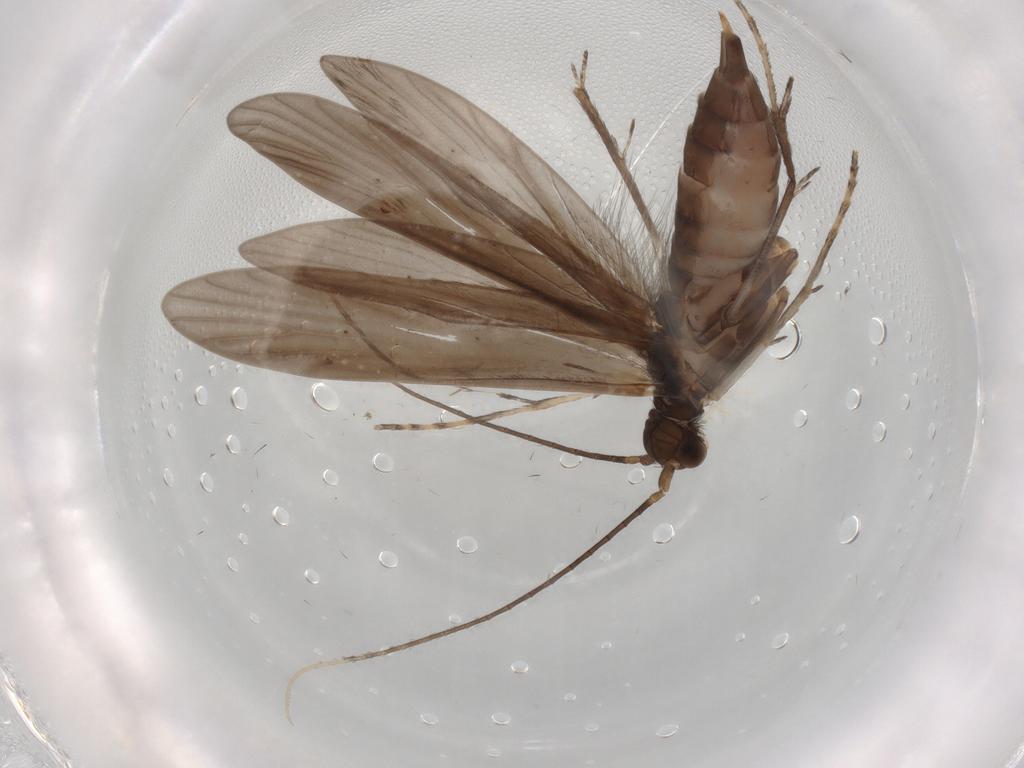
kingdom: Animalia
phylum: Arthropoda
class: Insecta
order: Trichoptera
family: Xiphocentronidae
